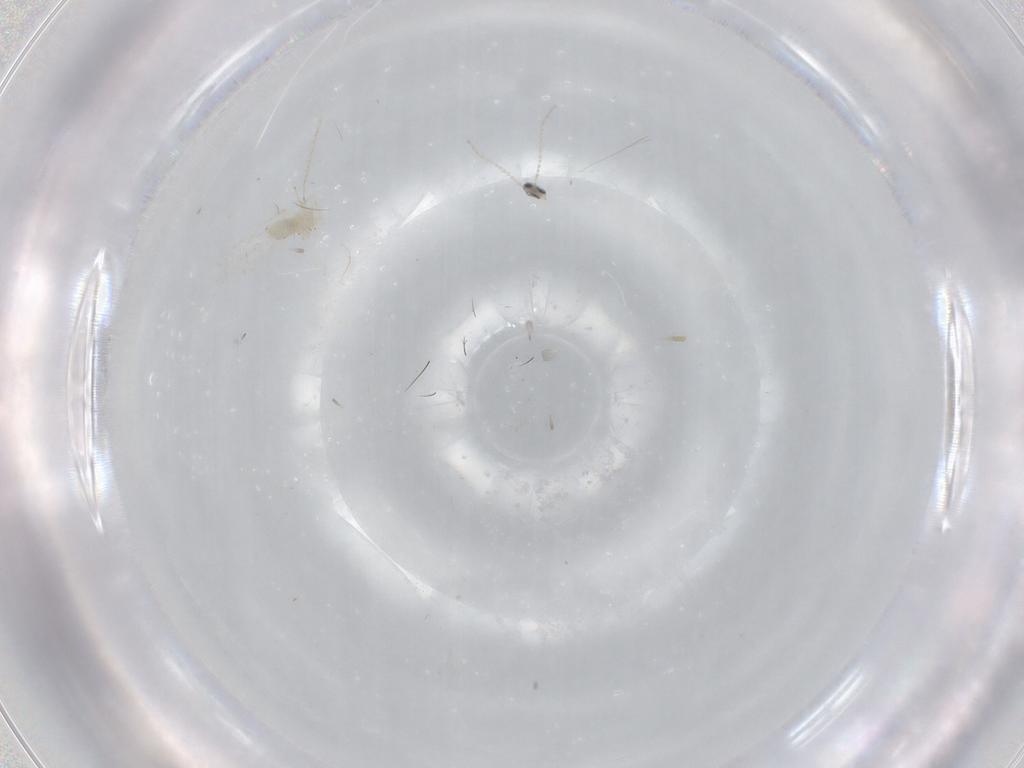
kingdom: Animalia
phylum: Arthropoda
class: Insecta
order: Diptera
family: Cecidomyiidae
